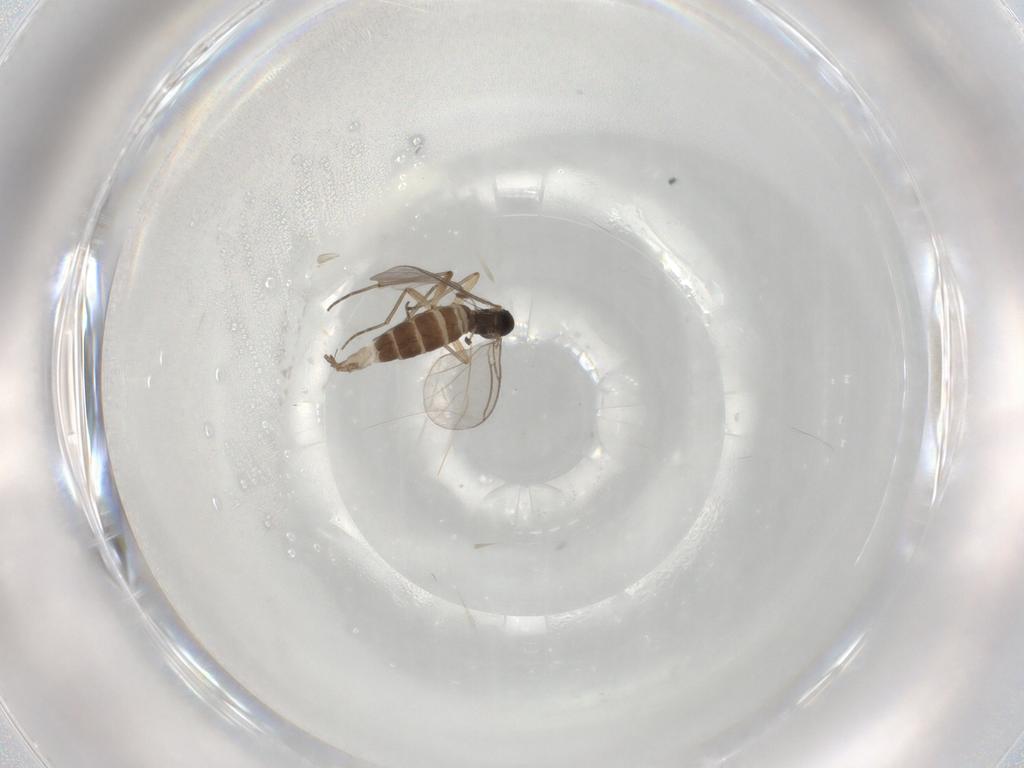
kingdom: Animalia
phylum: Arthropoda
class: Insecta
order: Diptera
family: Sciaridae
